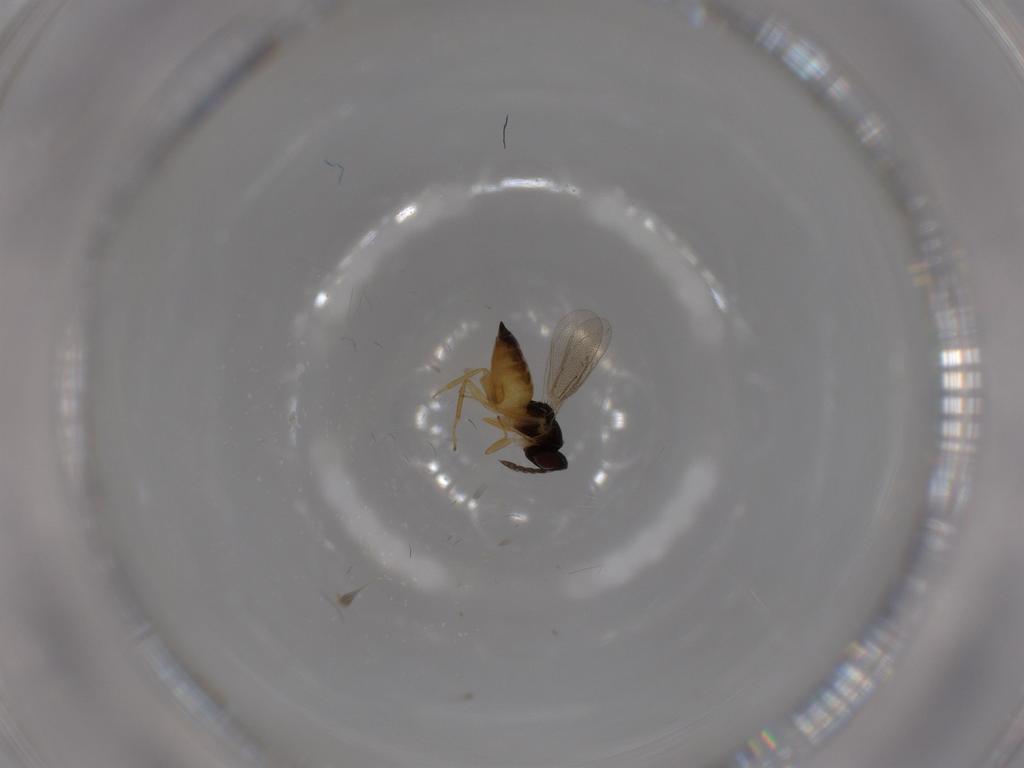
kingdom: Animalia
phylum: Arthropoda
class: Insecta
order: Hymenoptera
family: Eulophidae
